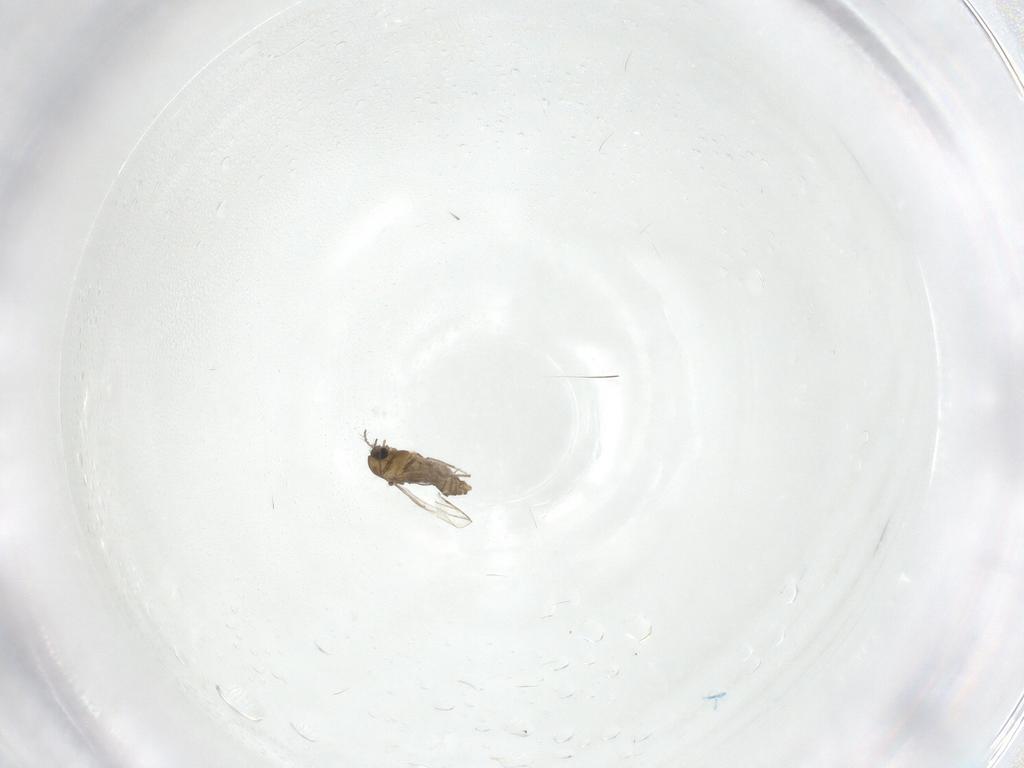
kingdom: Animalia
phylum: Arthropoda
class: Insecta
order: Diptera
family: Chironomidae
